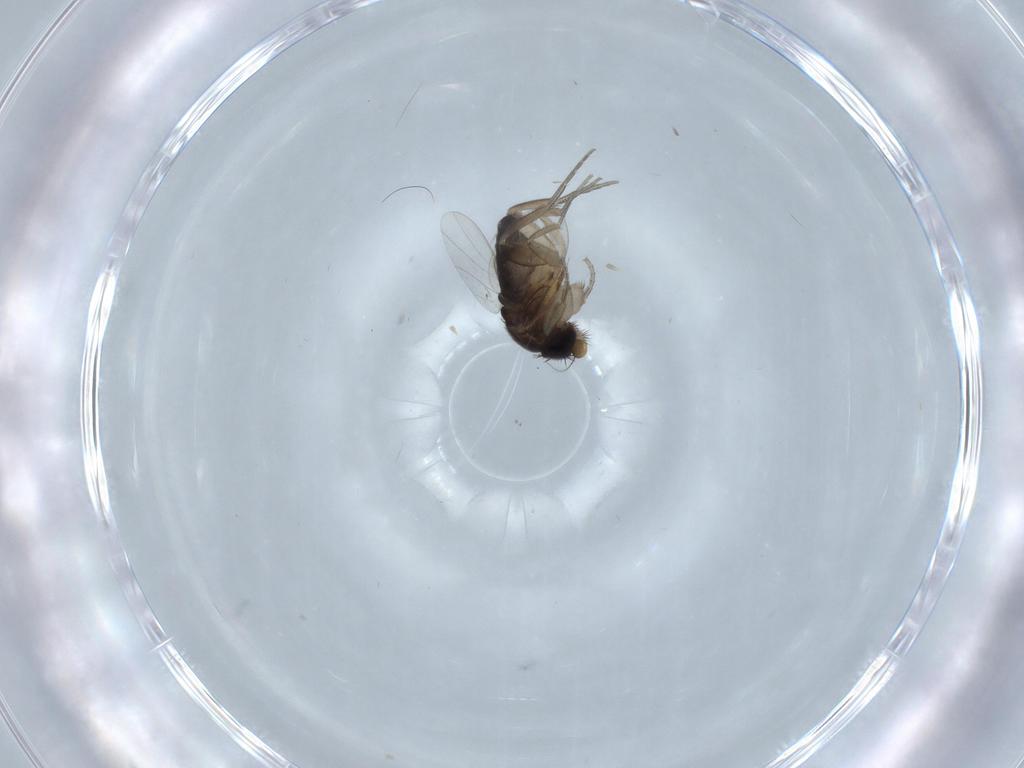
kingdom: Animalia
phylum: Arthropoda
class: Insecta
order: Diptera
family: Phoridae
